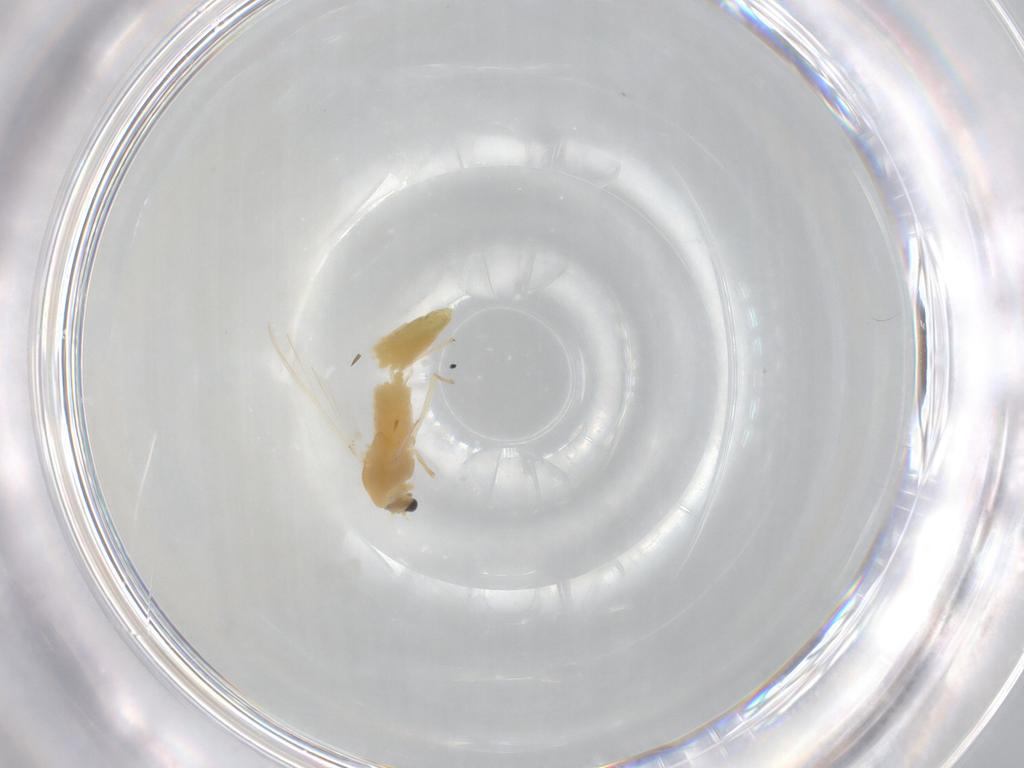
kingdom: Animalia
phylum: Arthropoda
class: Insecta
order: Diptera
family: Chironomidae
